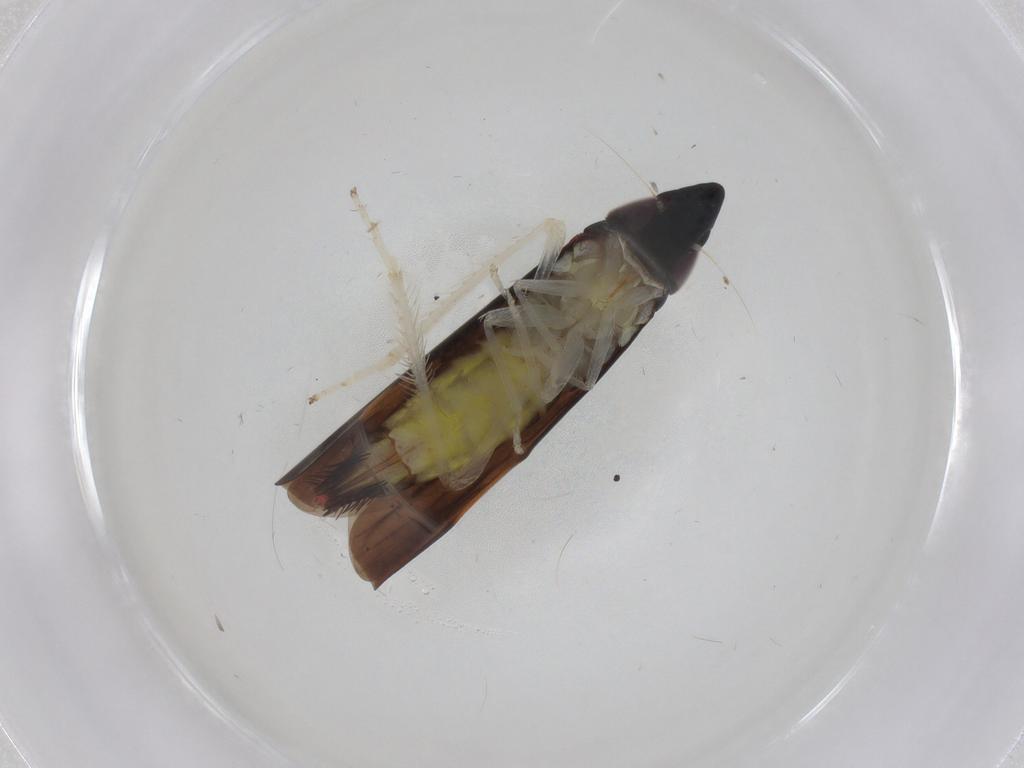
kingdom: Animalia
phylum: Arthropoda
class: Insecta
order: Hemiptera
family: Cicadellidae
